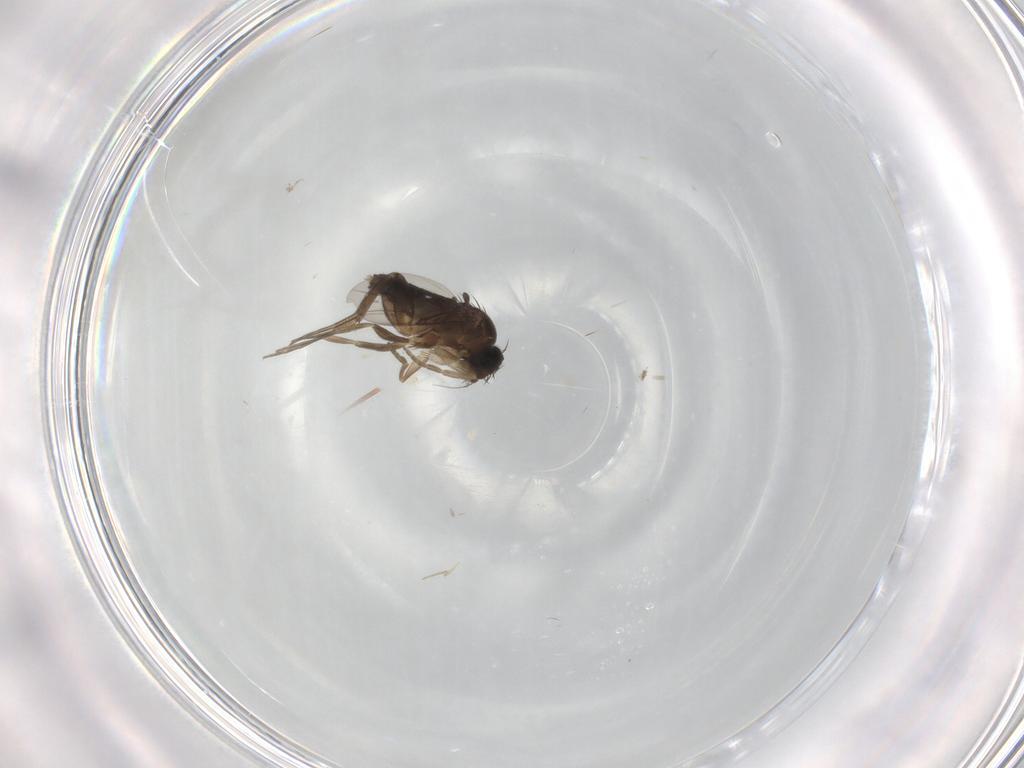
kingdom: Animalia
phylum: Arthropoda
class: Insecta
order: Diptera
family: Phoridae
